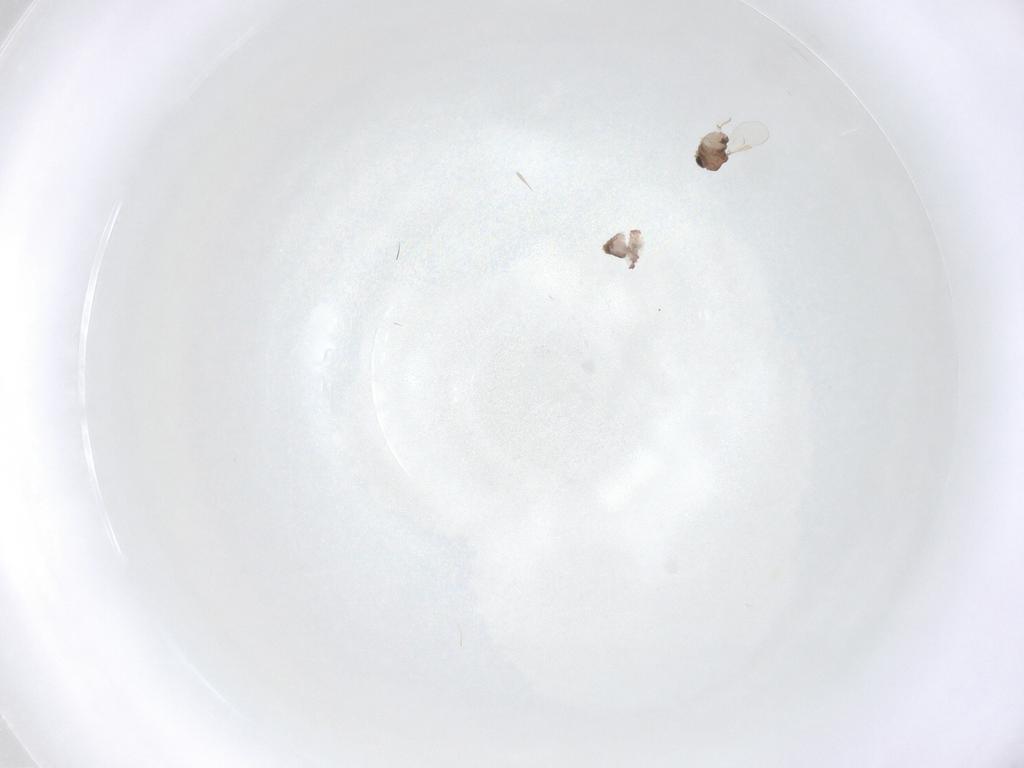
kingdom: Animalia
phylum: Arthropoda
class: Insecta
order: Diptera
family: Chironomidae
